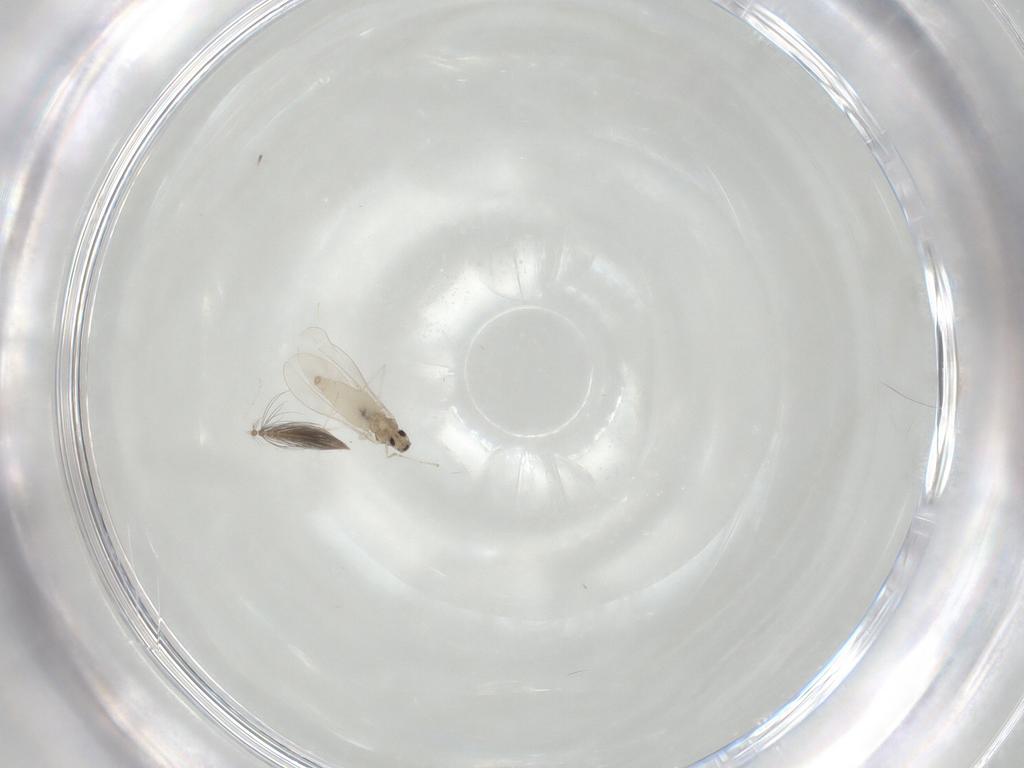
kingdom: Animalia
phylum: Arthropoda
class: Insecta
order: Diptera
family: Cecidomyiidae
